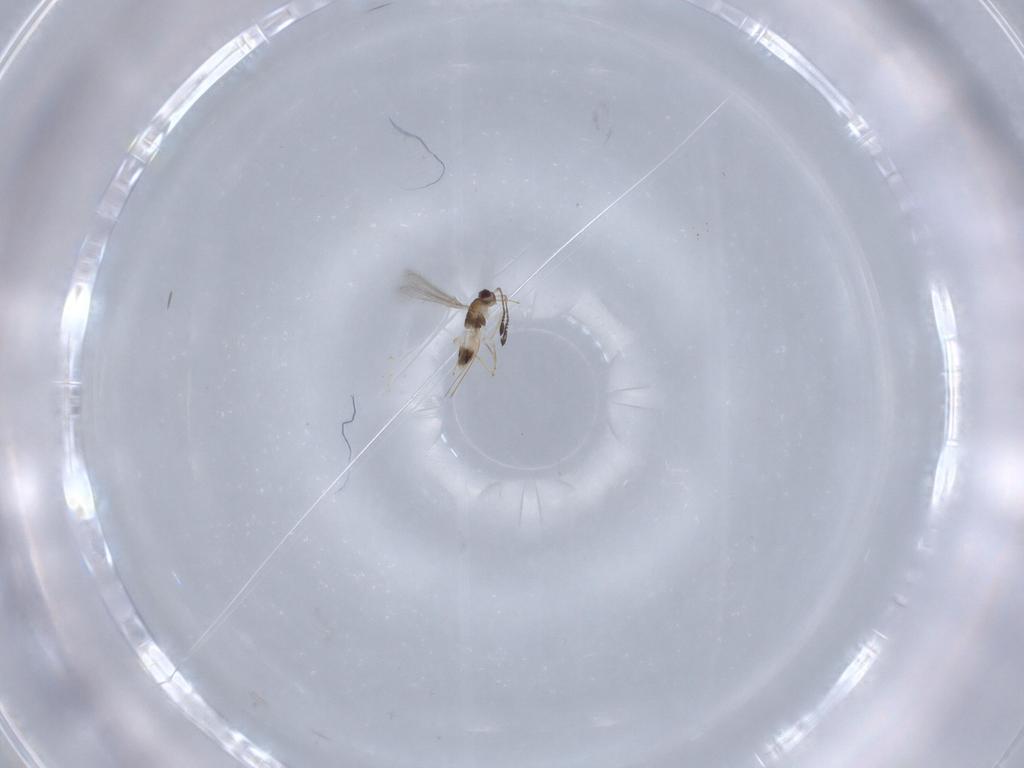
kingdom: Animalia
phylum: Arthropoda
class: Insecta
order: Hymenoptera
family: Mymaridae
